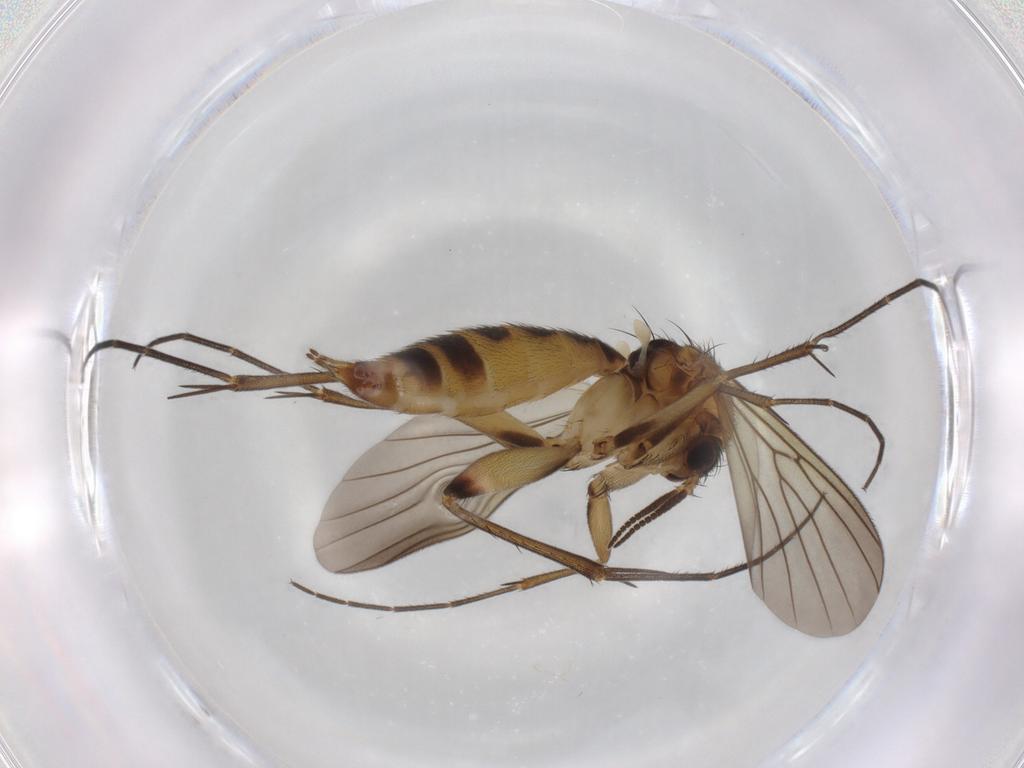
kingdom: Animalia
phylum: Arthropoda
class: Insecta
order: Diptera
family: Mycetophilidae
